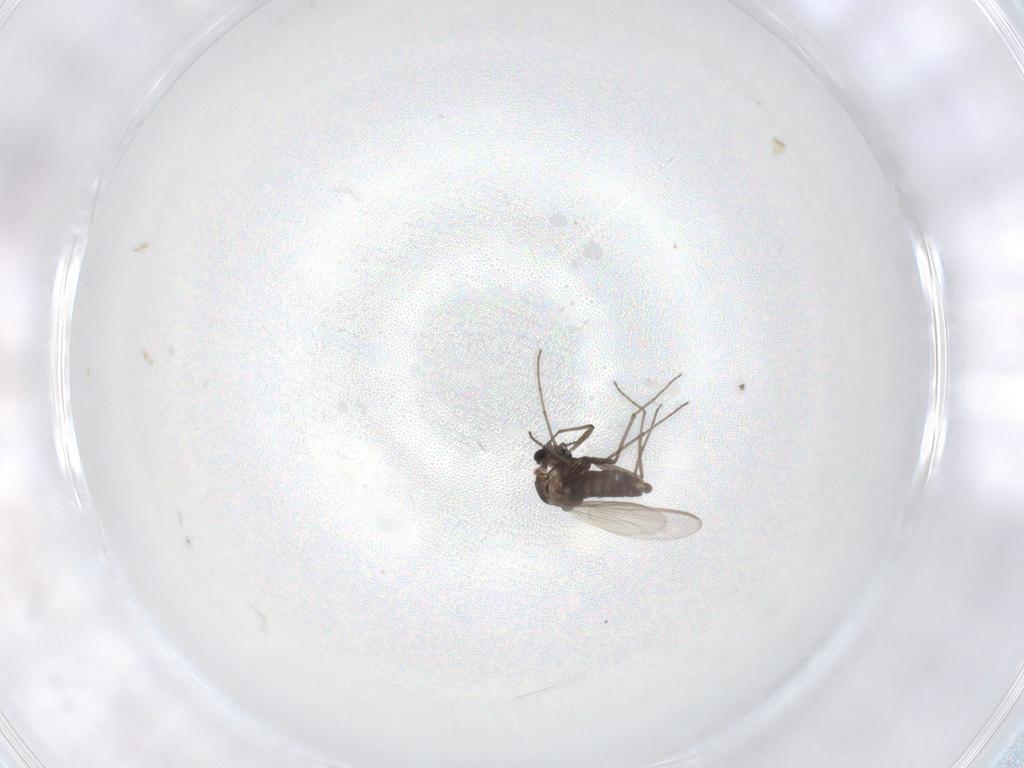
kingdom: Animalia
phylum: Arthropoda
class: Insecta
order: Diptera
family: Chironomidae
